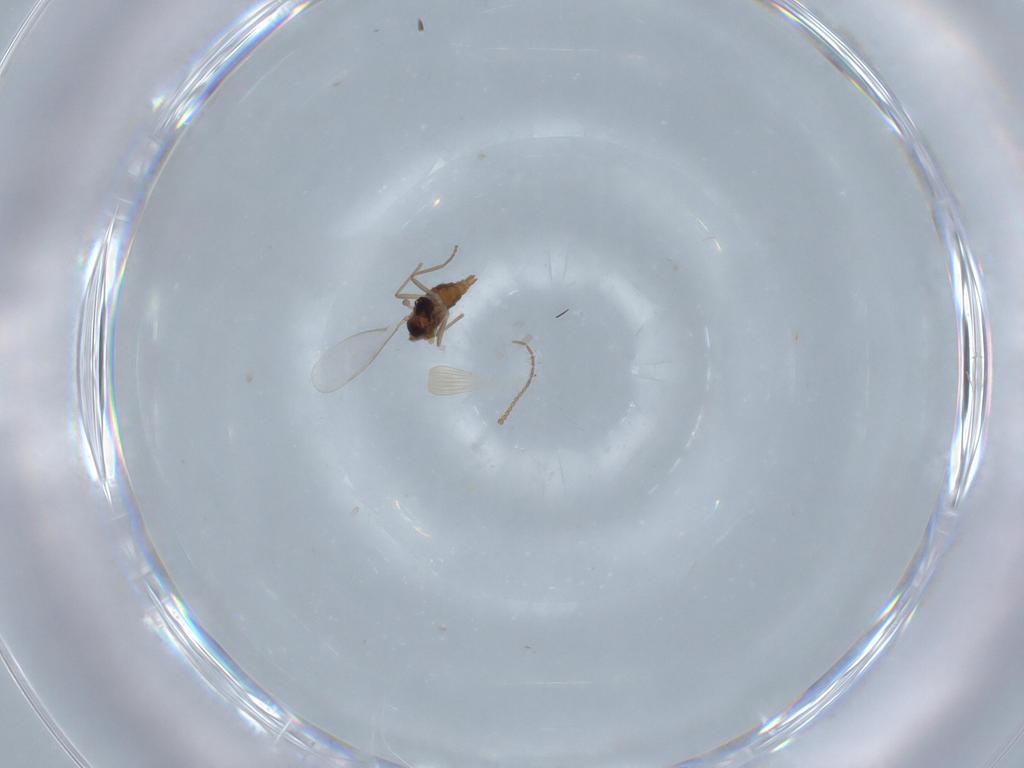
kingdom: Animalia
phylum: Arthropoda
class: Insecta
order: Diptera
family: Cecidomyiidae
